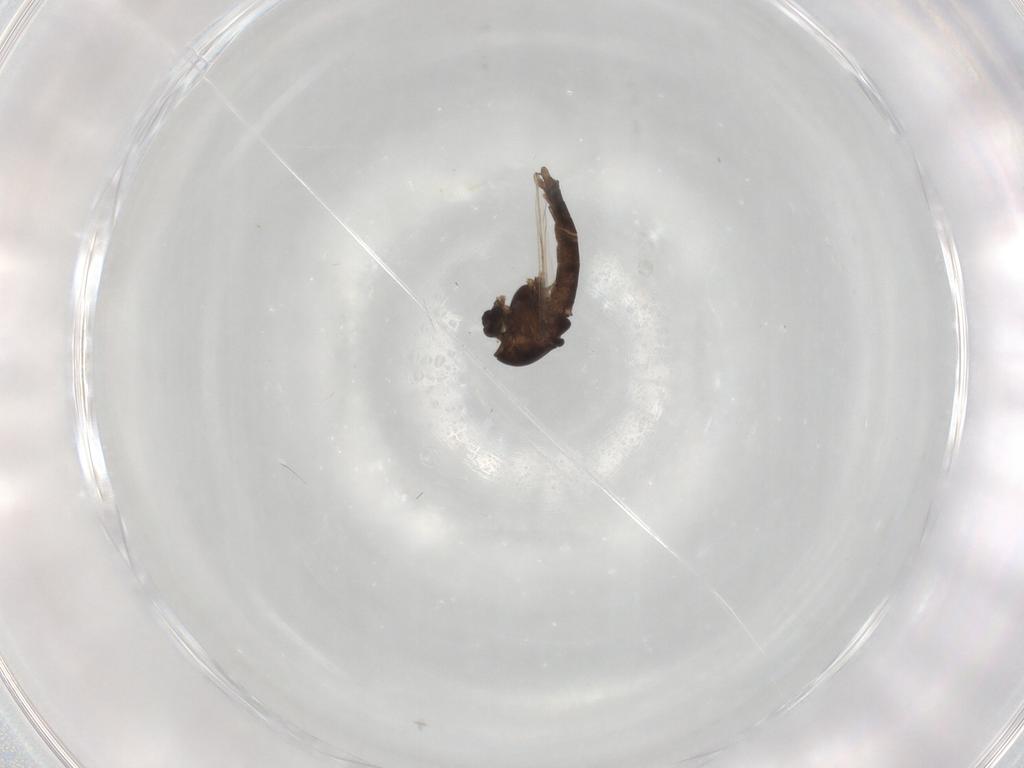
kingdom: Animalia
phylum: Arthropoda
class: Insecta
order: Diptera
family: Chironomidae
